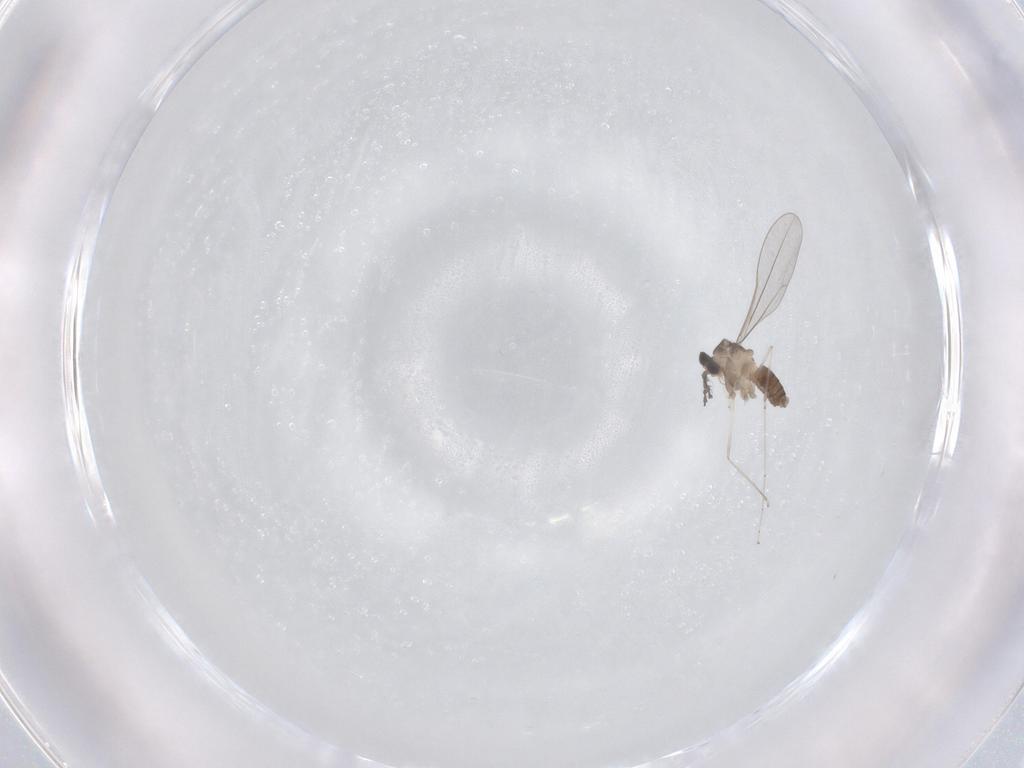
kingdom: Animalia
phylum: Arthropoda
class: Insecta
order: Diptera
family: Cecidomyiidae
